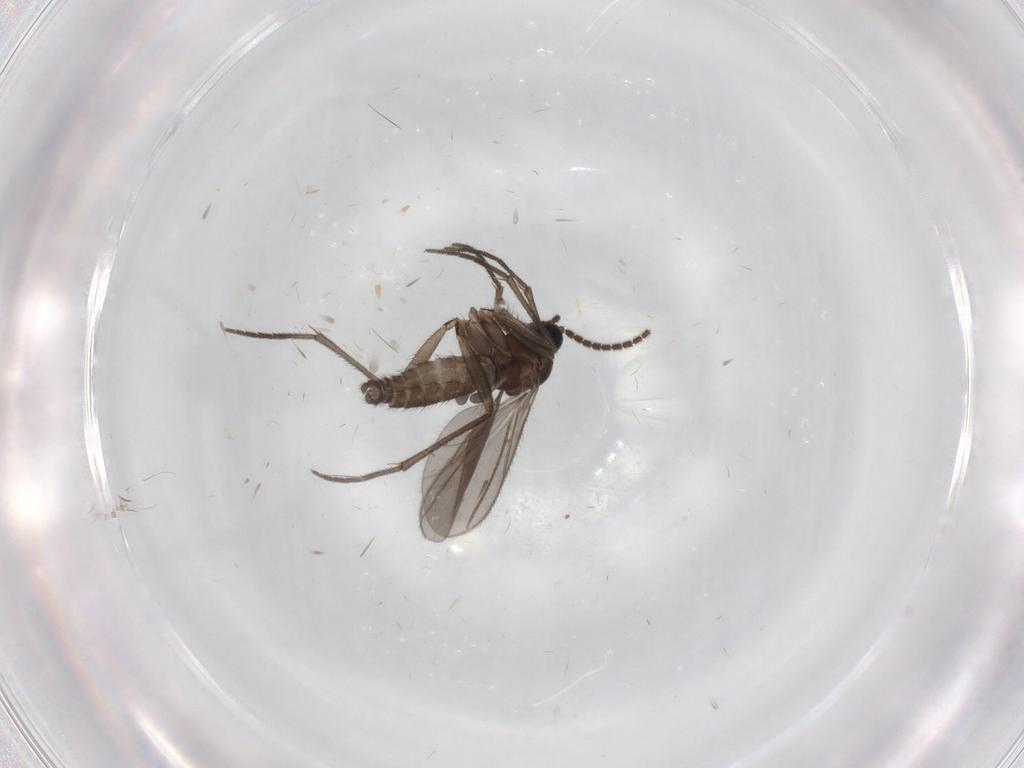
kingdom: Animalia
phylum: Arthropoda
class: Insecta
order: Diptera
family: Sciaridae
